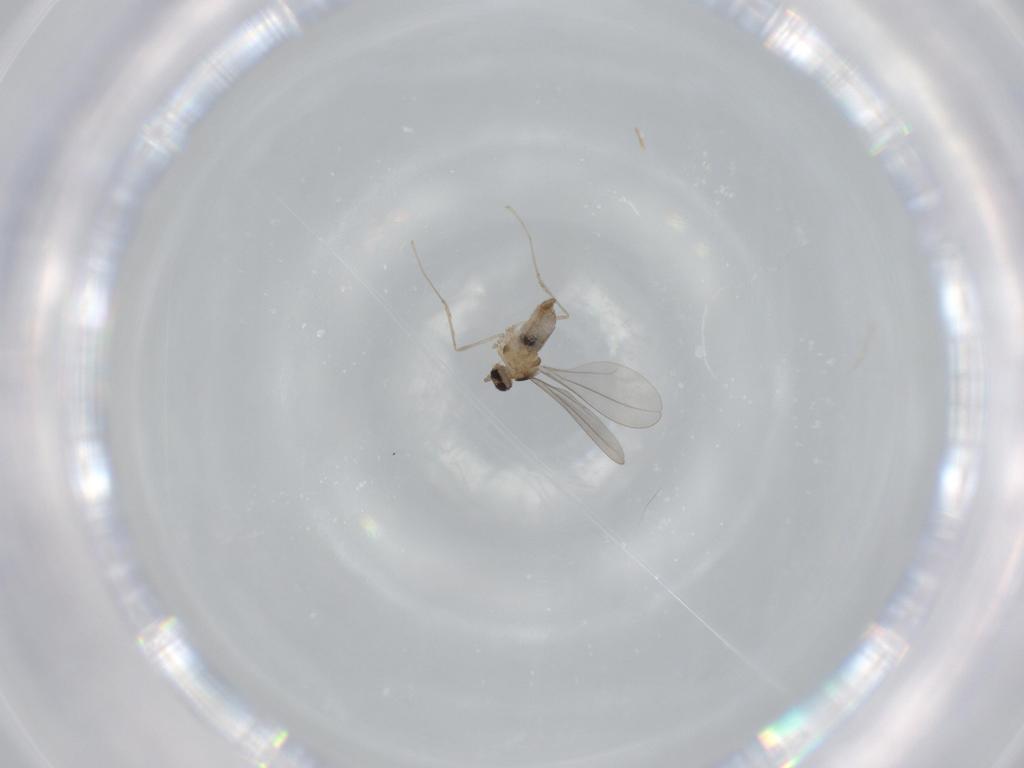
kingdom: Animalia
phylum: Arthropoda
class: Insecta
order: Diptera
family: Cecidomyiidae
